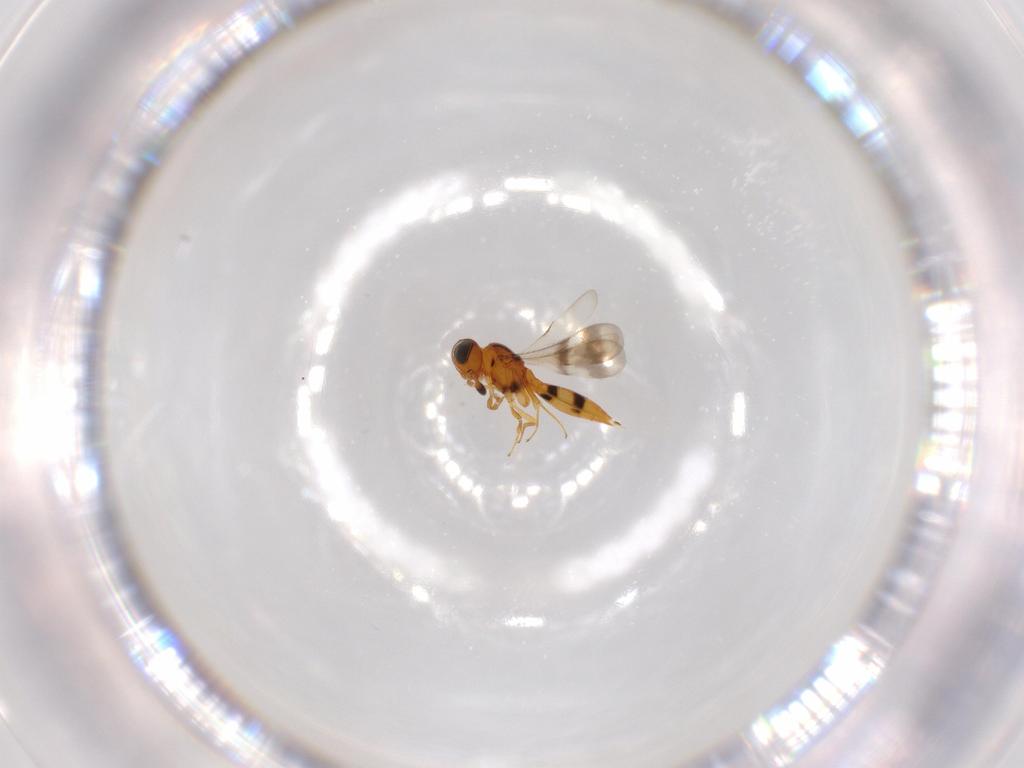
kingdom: Animalia
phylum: Arthropoda
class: Insecta
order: Hymenoptera
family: Scelionidae
